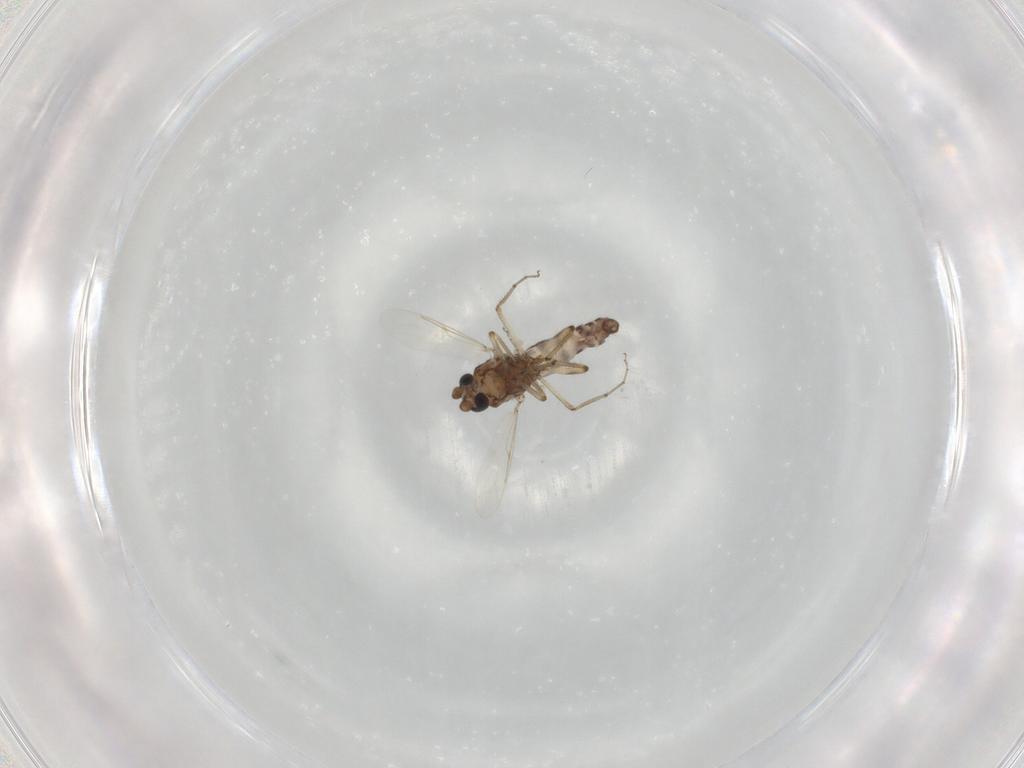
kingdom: Animalia
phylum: Arthropoda
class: Insecta
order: Diptera
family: Ceratopogonidae
